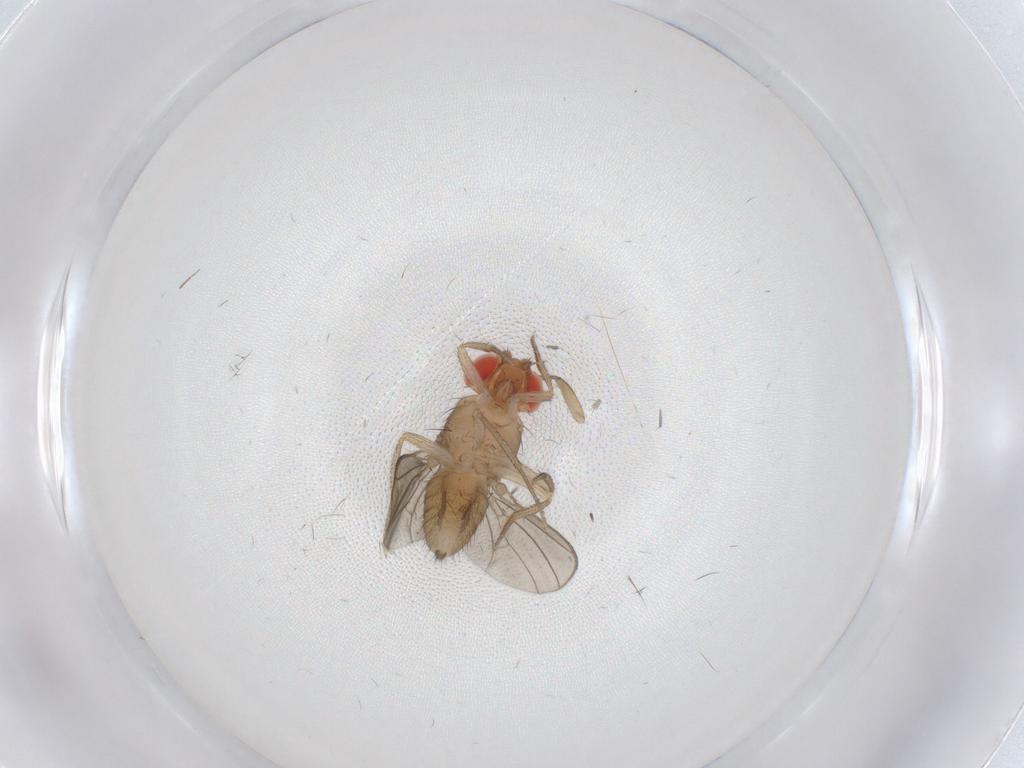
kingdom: Animalia
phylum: Arthropoda
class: Insecta
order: Diptera
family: Drosophilidae
